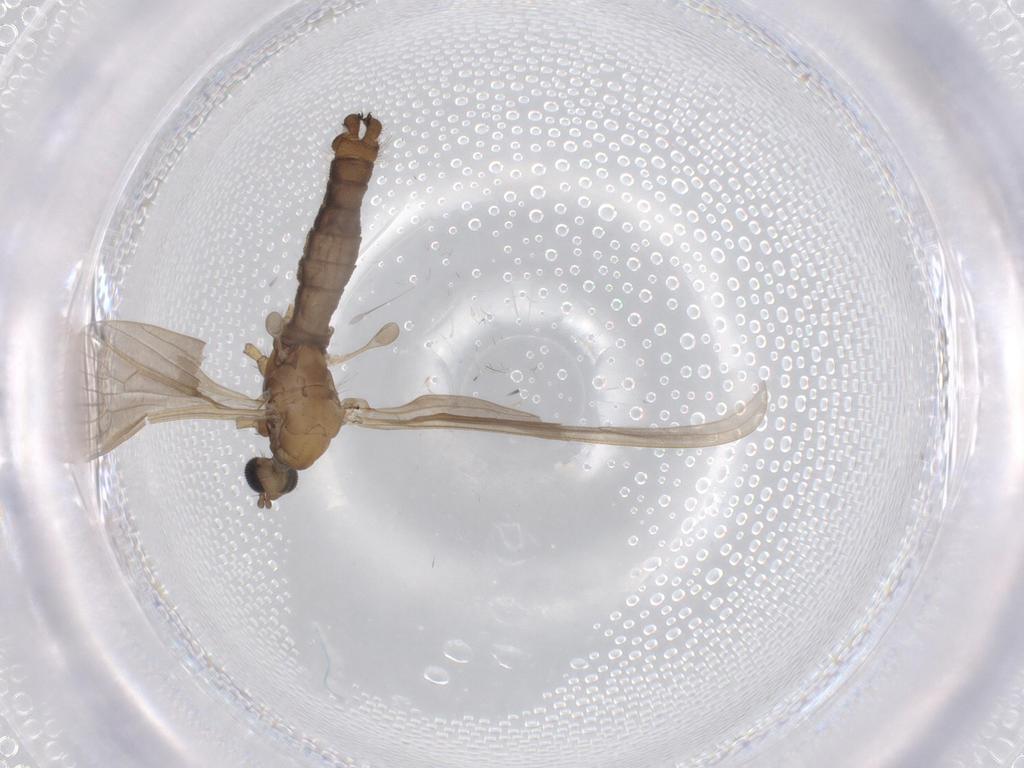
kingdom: Animalia
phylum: Arthropoda
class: Insecta
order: Diptera
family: Sciaridae
